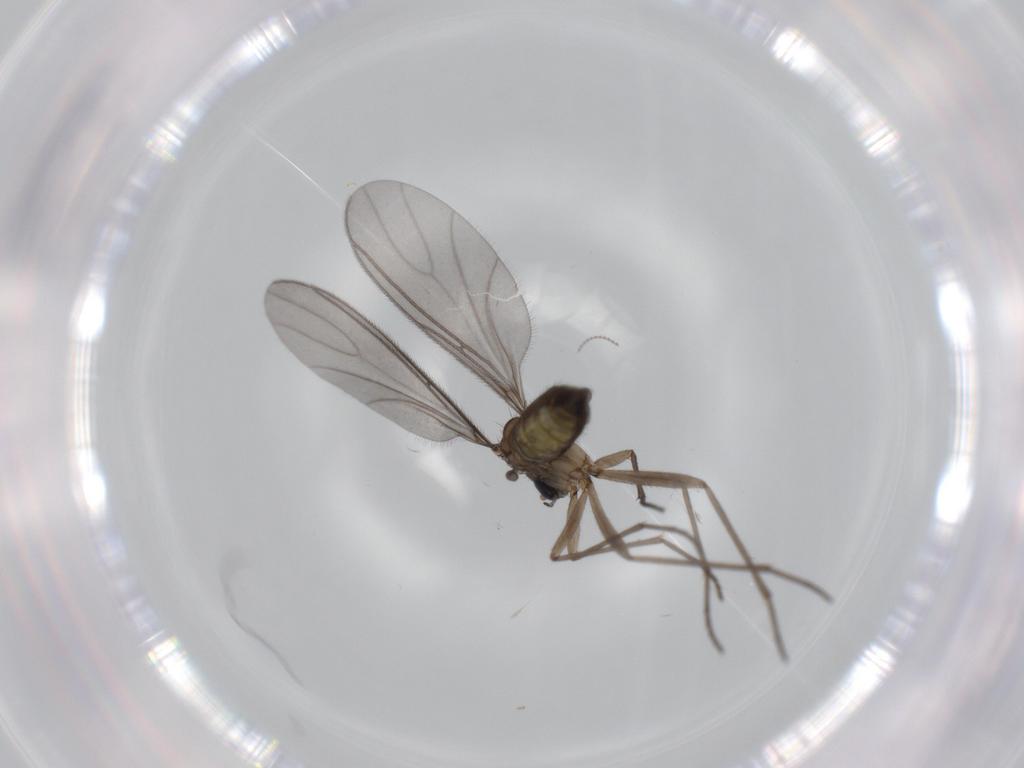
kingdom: Animalia
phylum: Arthropoda
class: Insecta
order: Diptera
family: Sciaridae
